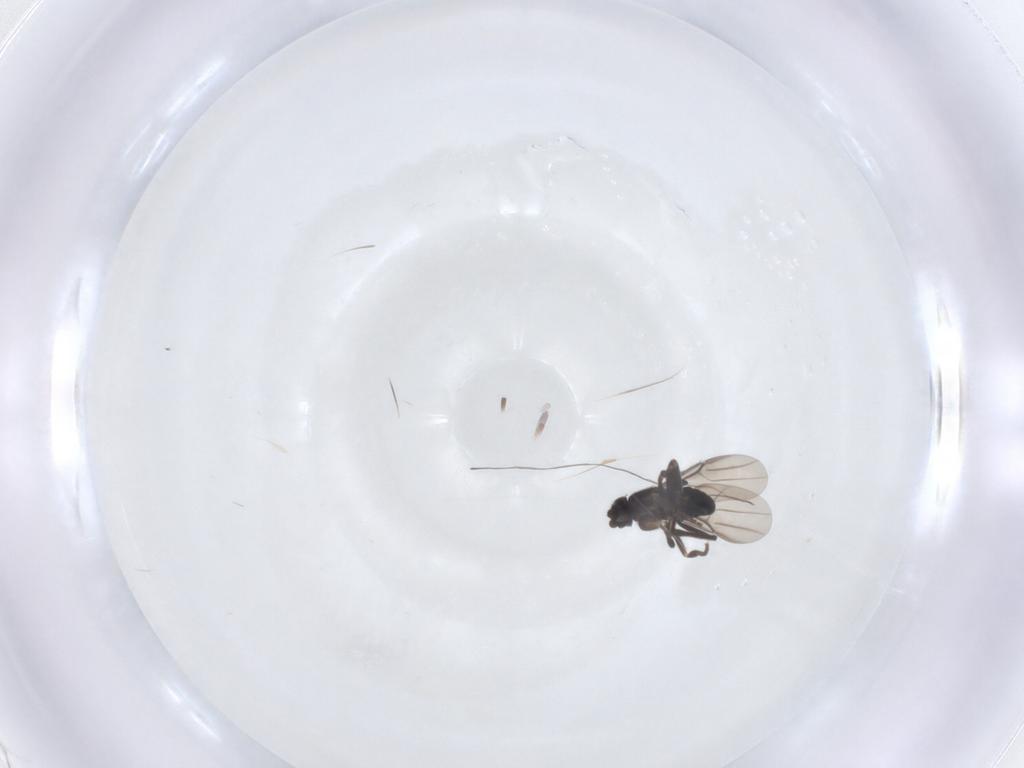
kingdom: Animalia
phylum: Arthropoda
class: Insecta
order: Diptera
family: Phoridae
